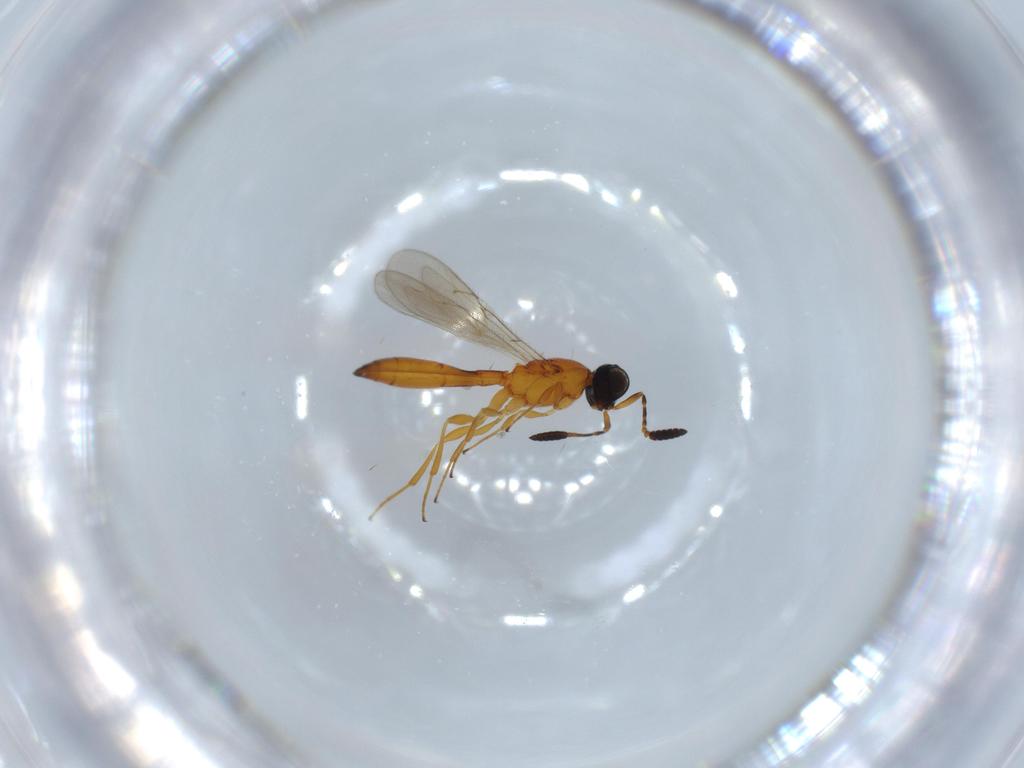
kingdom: Animalia
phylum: Arthropoda
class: Insecta
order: Hymenoptera
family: Scelionidae
